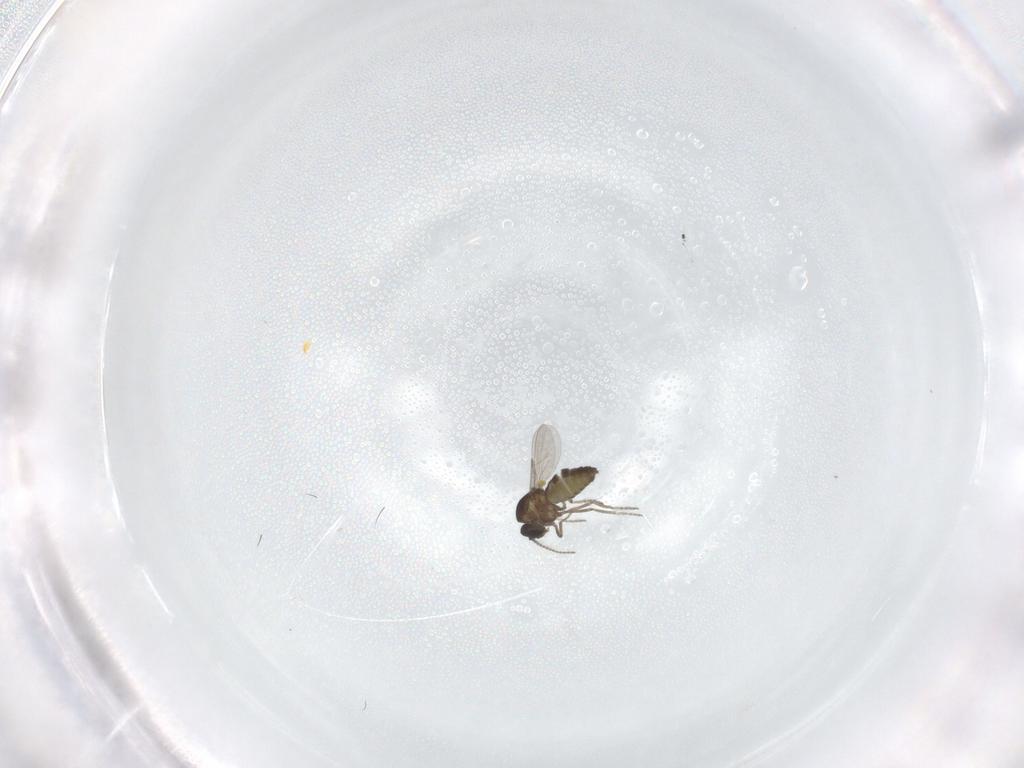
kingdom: Animalia
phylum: Arthropoda
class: Insecta
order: Diptera
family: Ceratopogonidae
